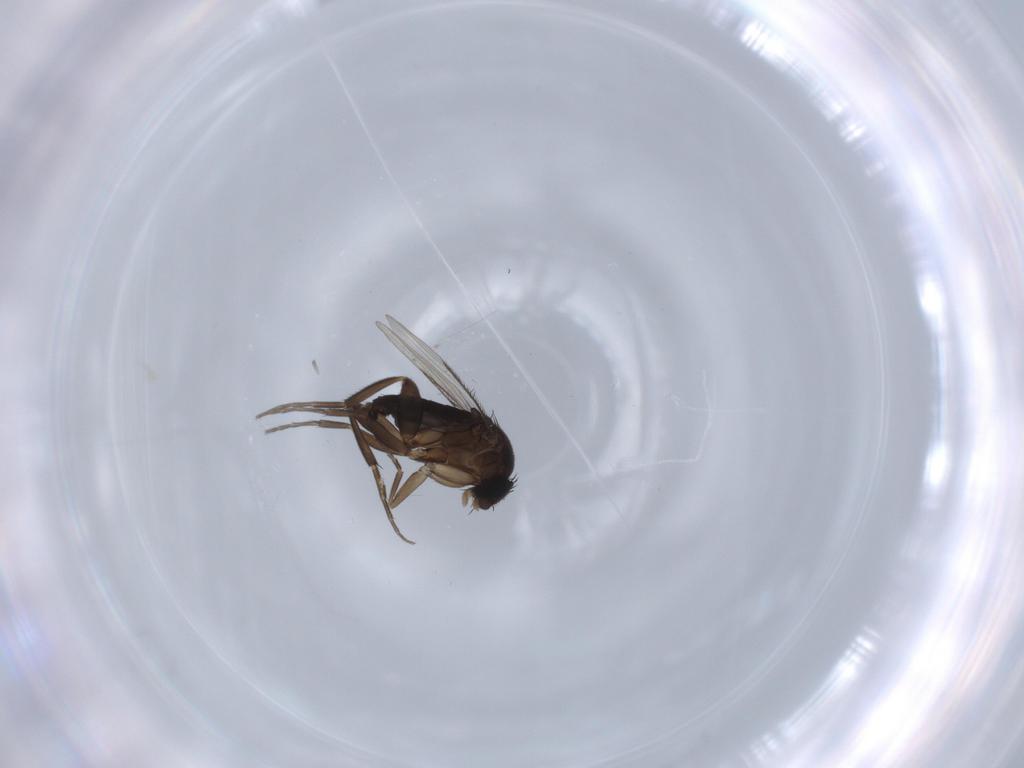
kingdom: Animalia
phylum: Arthropoda
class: Insecta
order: Diptera
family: Phoridae
